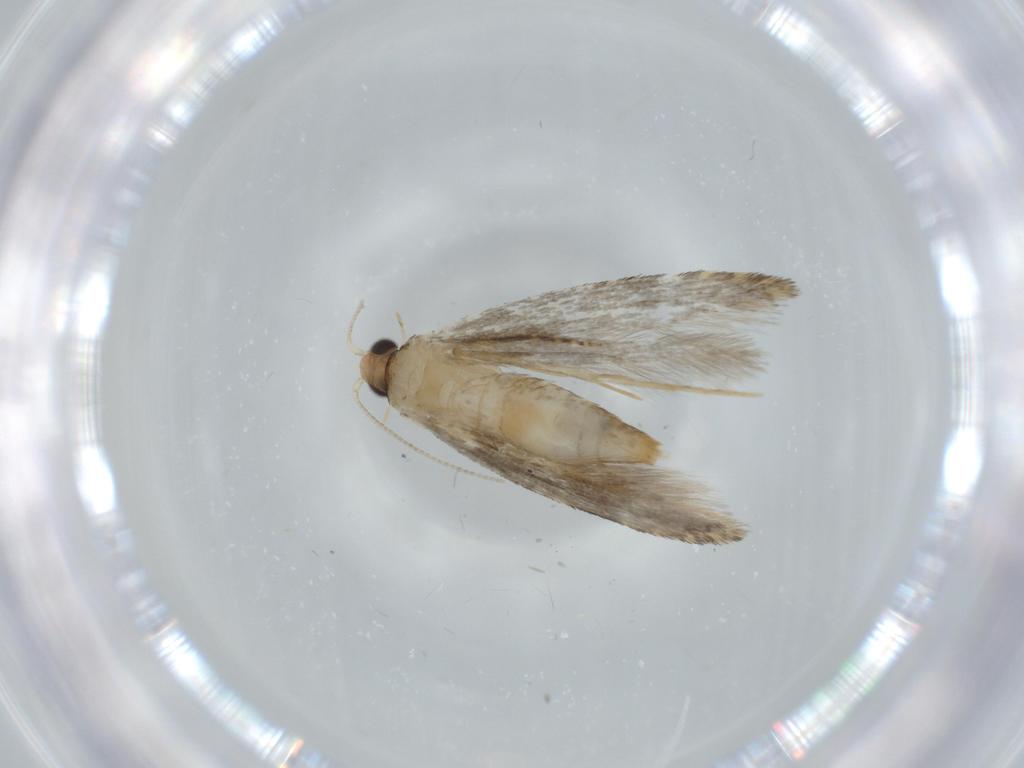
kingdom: Animalia
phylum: Arthropoda
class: Insecta
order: Lepidoptera
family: Tineidae
